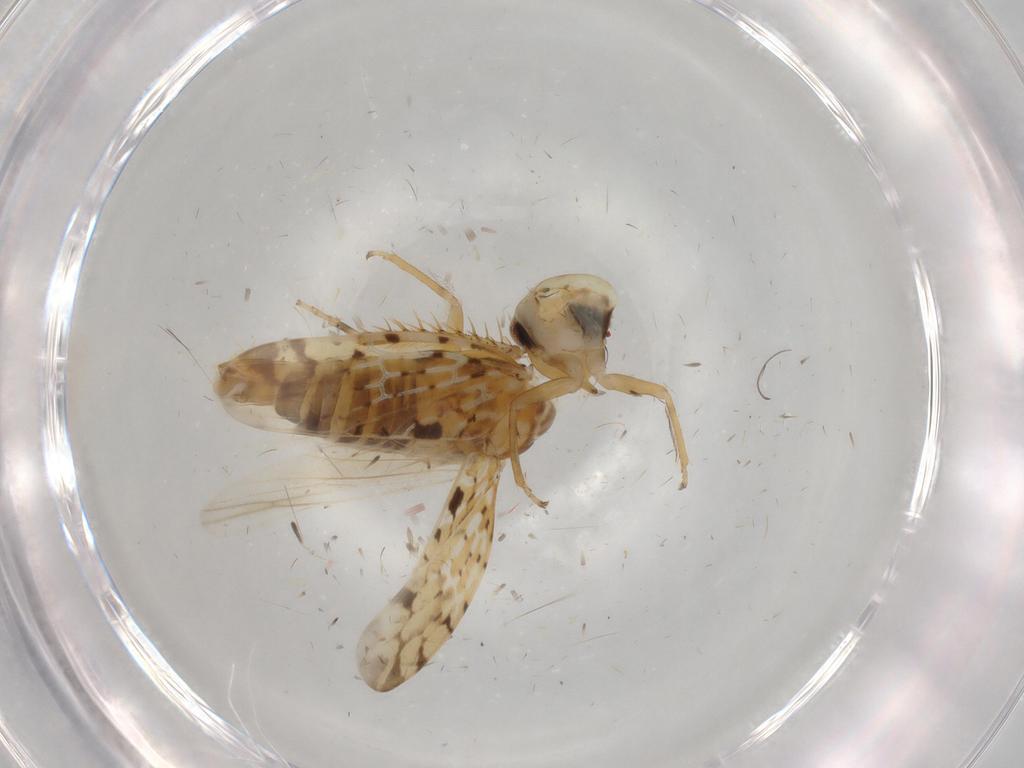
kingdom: Animalia
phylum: Arthropoda
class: Insecta
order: Hemiptera
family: Cicadellidae
